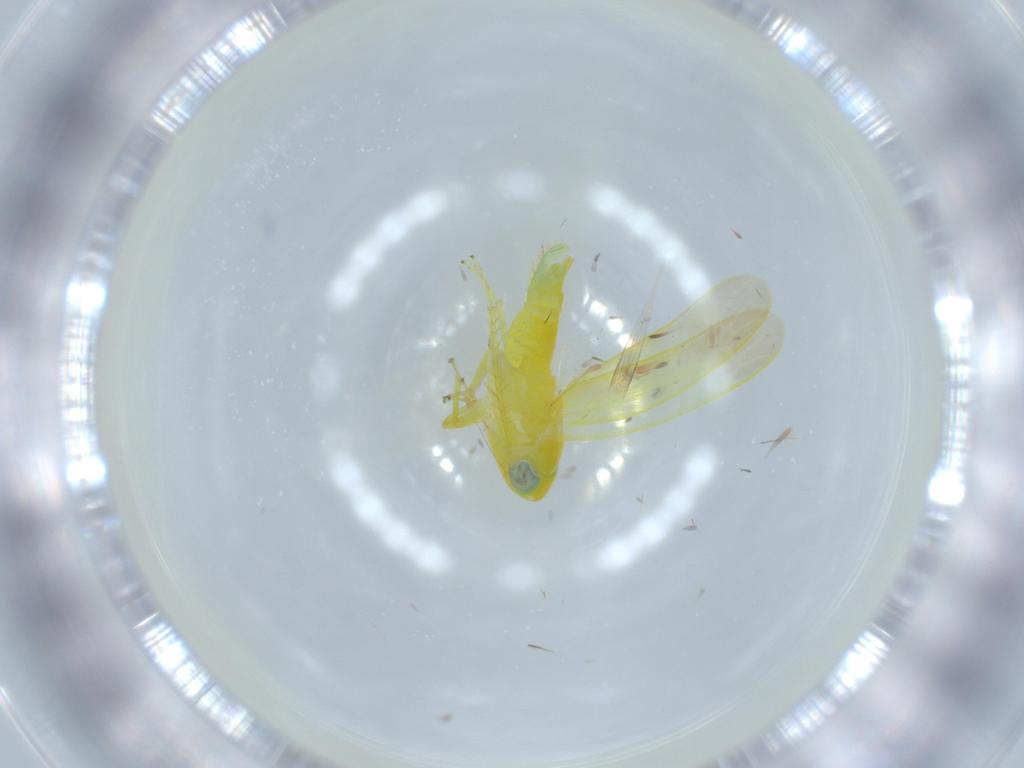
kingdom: Animalia
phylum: Arthropoda
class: Insecta
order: Hemiptera
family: Cicadellidae
